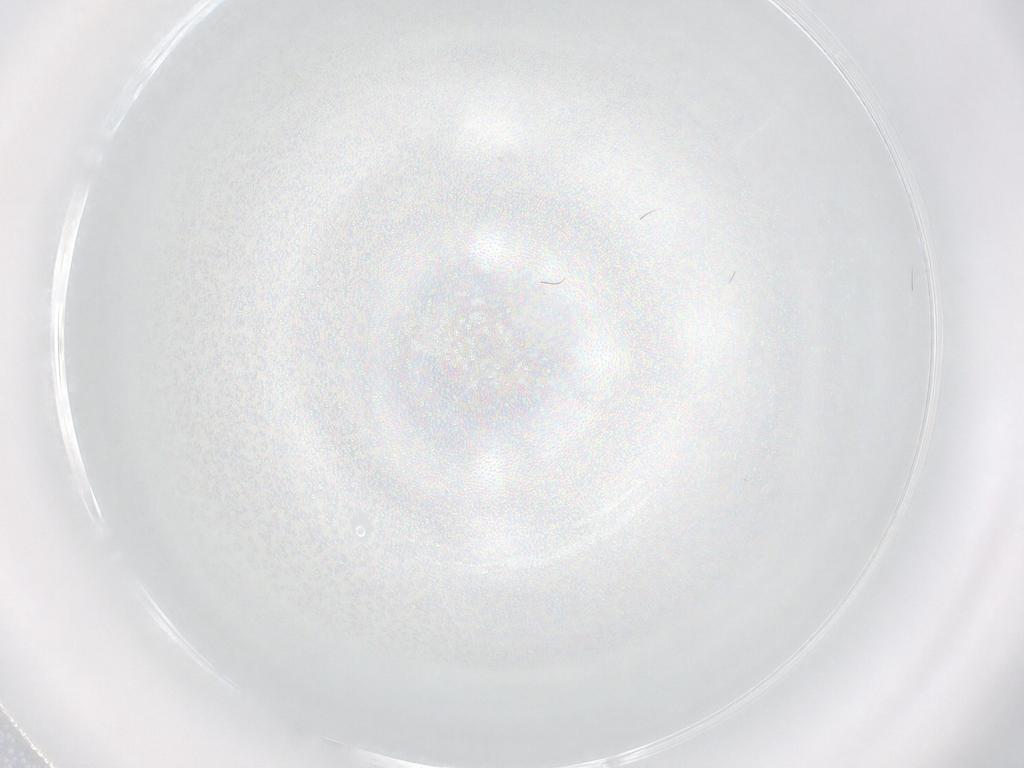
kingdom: Animalia
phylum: Arthropoda
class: Arachnida
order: Trombidiformes
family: Tetranychidae
